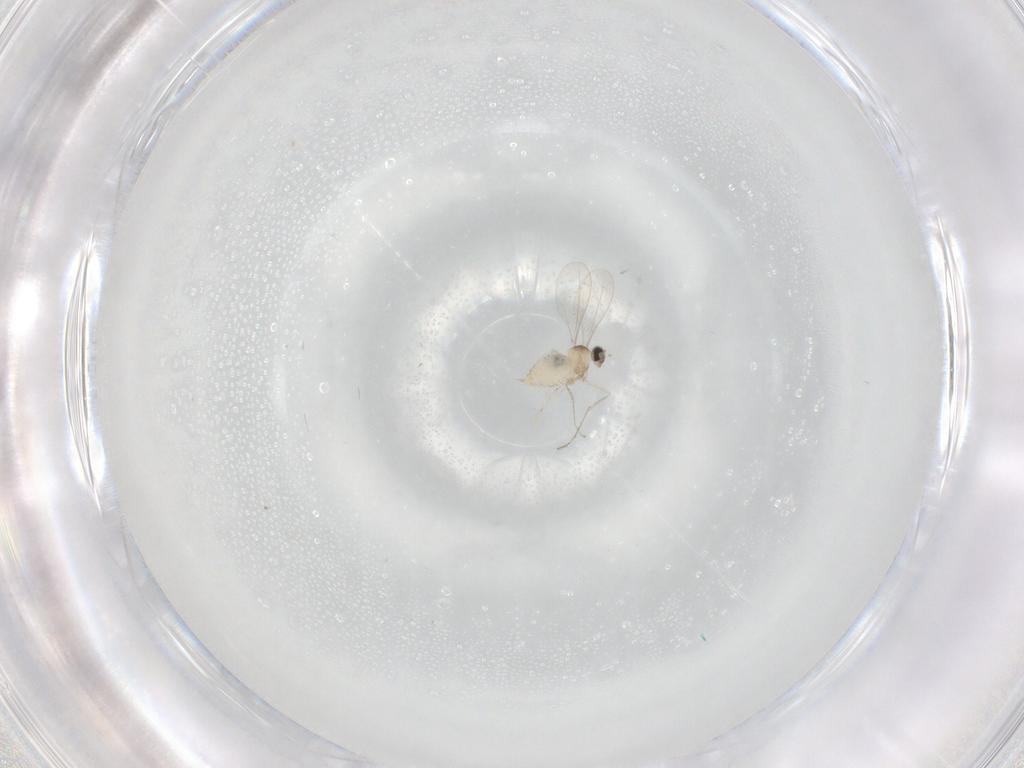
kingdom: Animalia
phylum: Arthropoda
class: Insecta
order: Diptera
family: Cecidomyiidae
